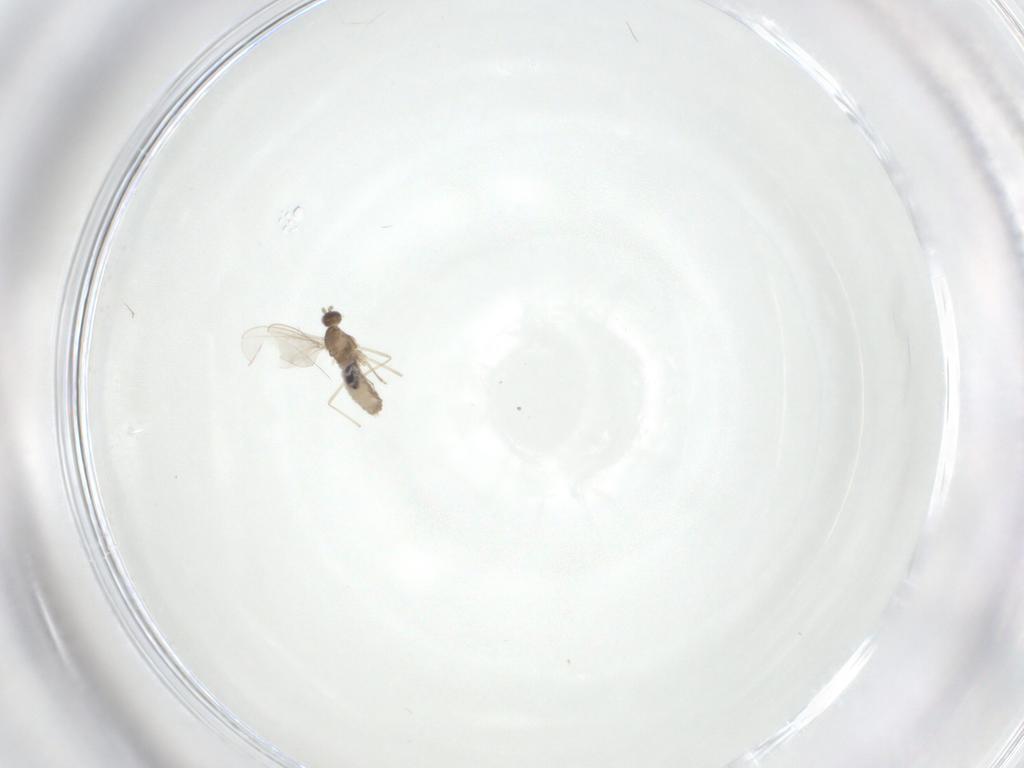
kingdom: Animalia
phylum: Arthropoda
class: Insecta
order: Diptera
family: Cecidomyiidae
